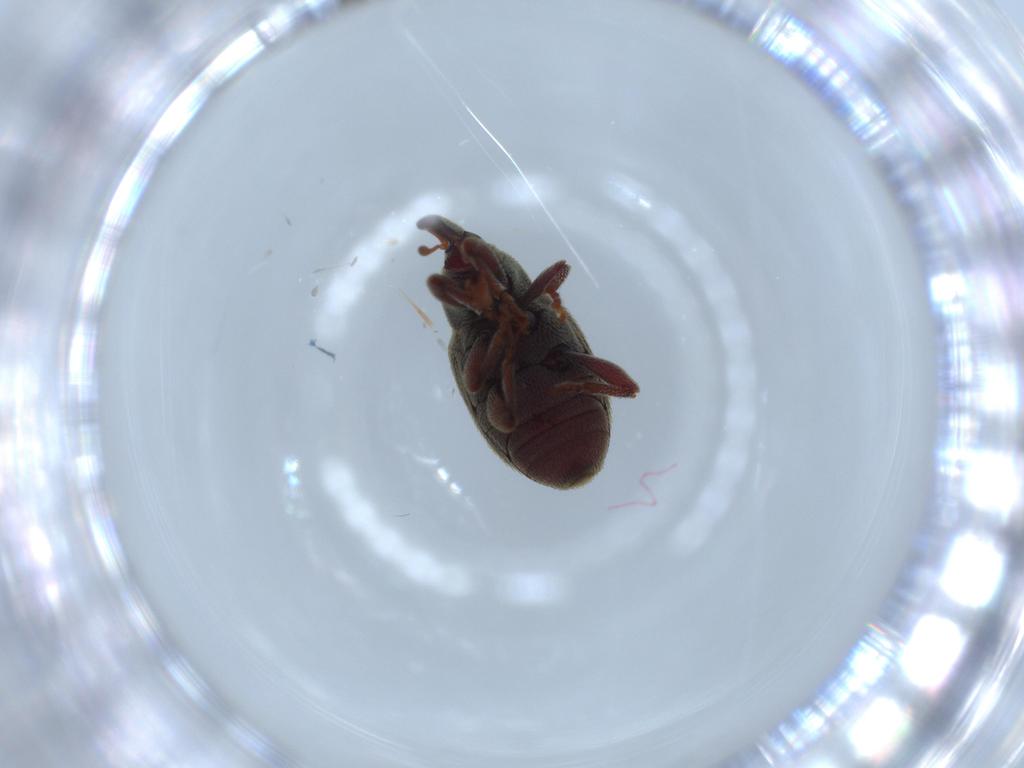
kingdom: Animalia
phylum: Arthropoda
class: Insecta
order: Coleoptera
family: Curculionidae
